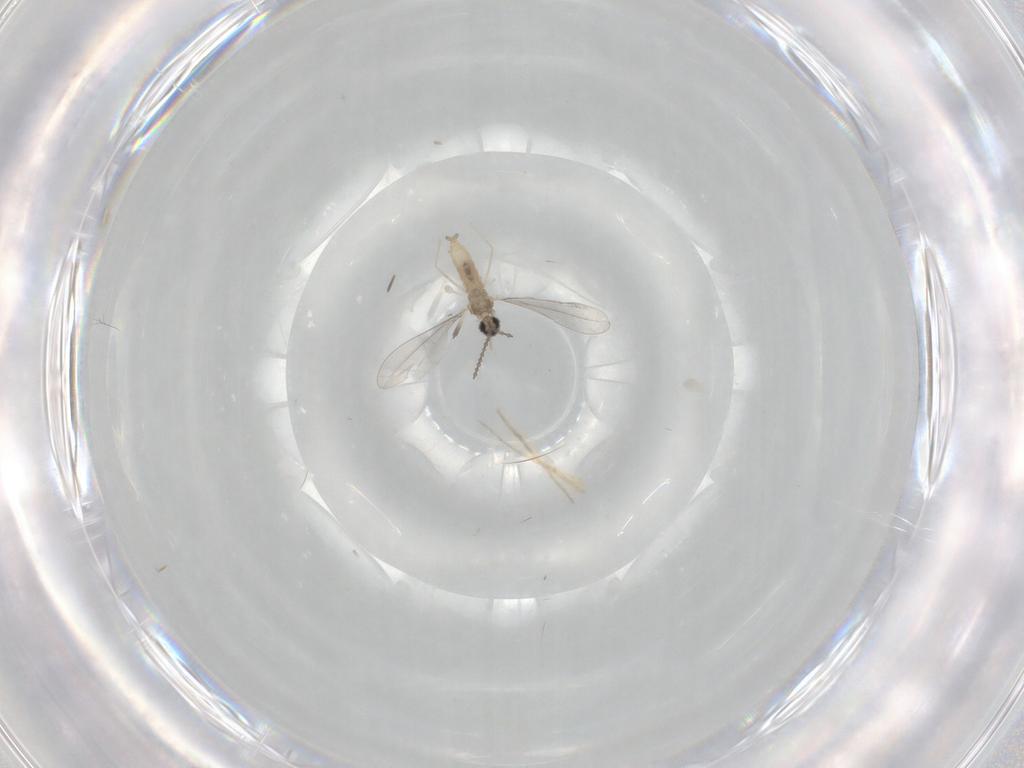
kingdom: Animalia
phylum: Arthropoda
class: Insecta
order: Diptera
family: Cecidomyiidae
